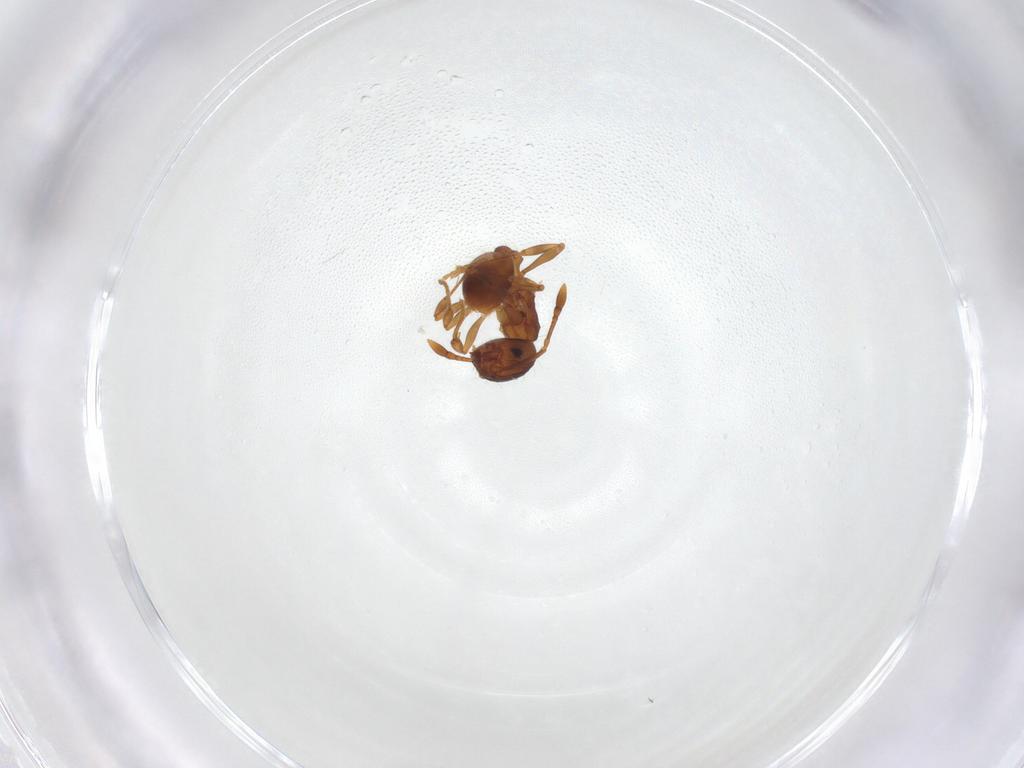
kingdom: Animalia
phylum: Arthropoda
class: Insecta
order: Hymenoptera
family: Formicidae
